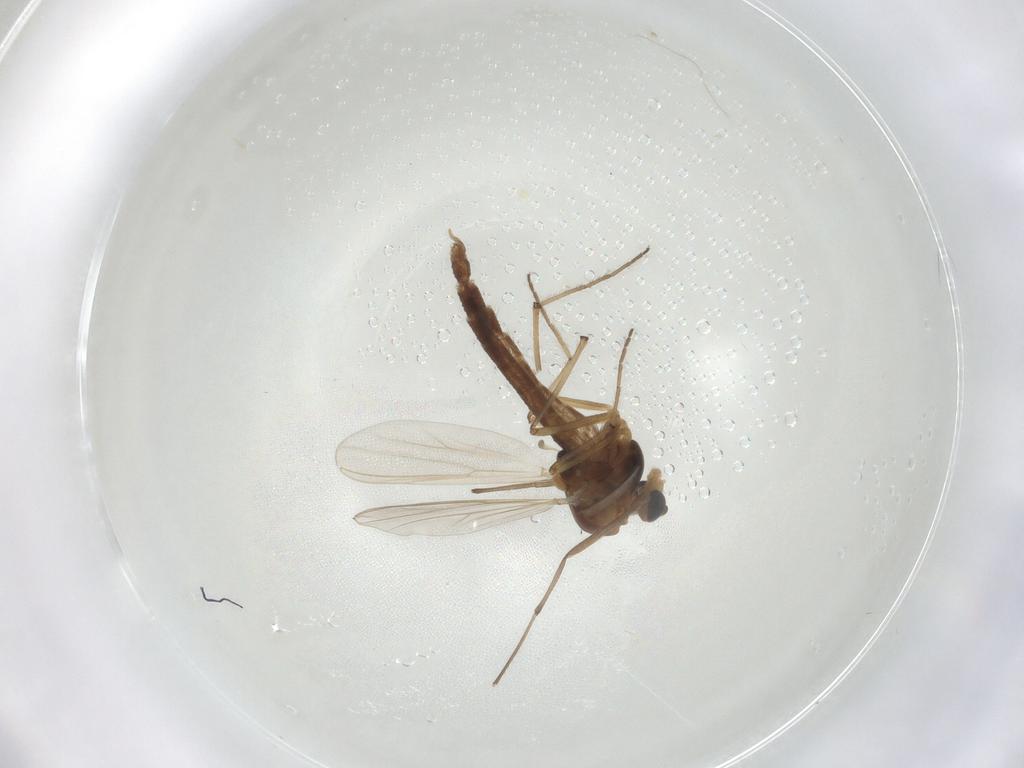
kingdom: Animalia
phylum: Arthropoda
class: Insecta
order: Diptera
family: Chironomidae
